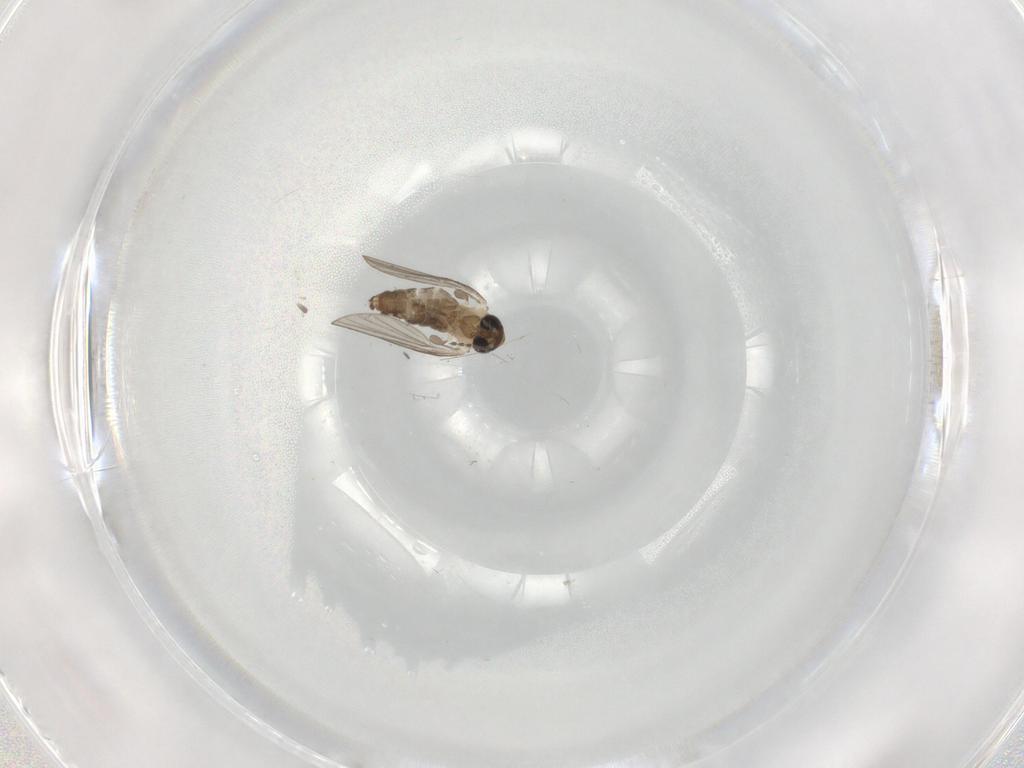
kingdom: Animalia
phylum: Arthropoda
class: Insecta
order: Diptera
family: Psychodidae
